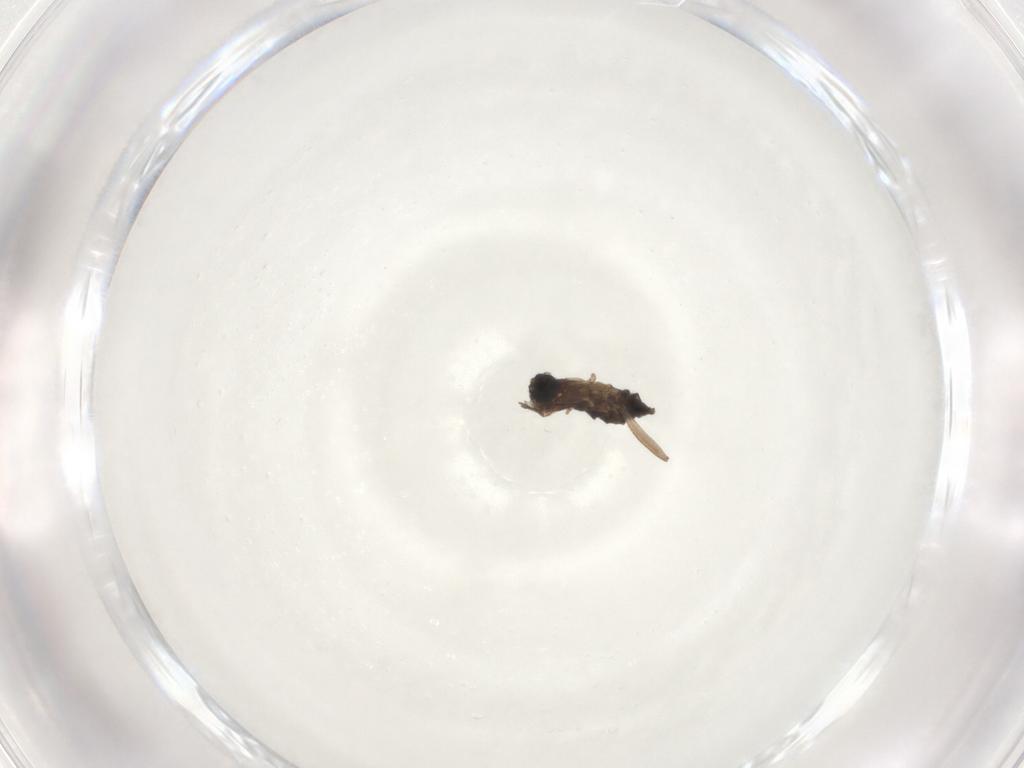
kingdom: Animalia
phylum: Arthropoda
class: Insecta
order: Diptera
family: Sciaridae
